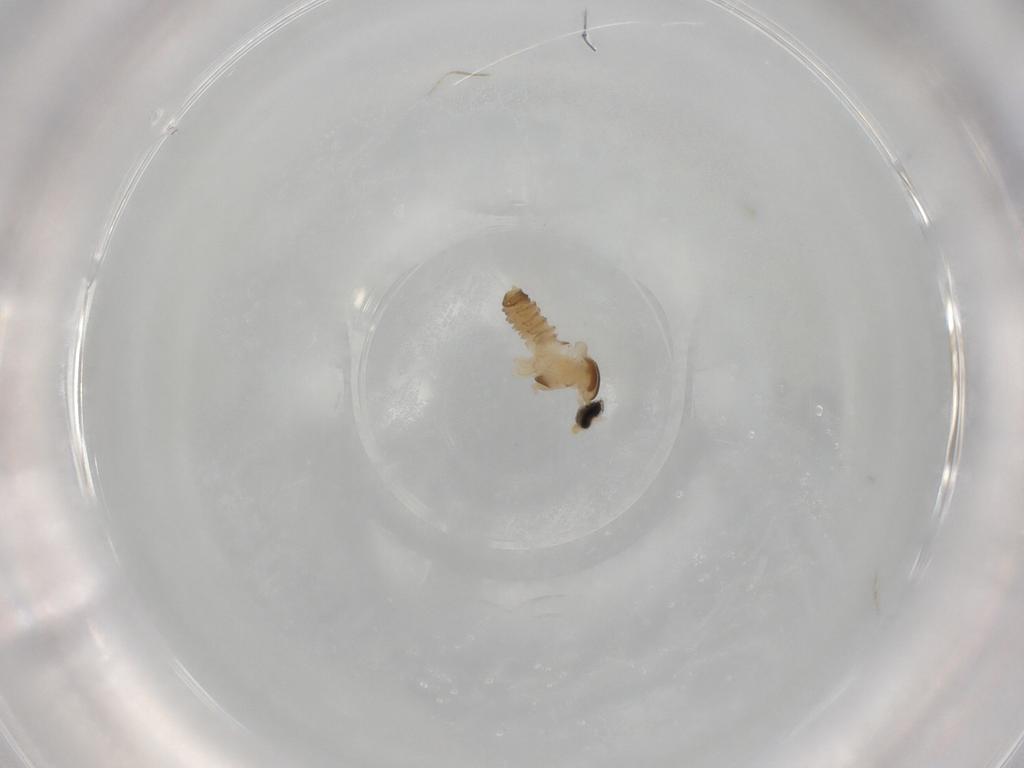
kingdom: Animalia
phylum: Arthropoda
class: Insecta
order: Diptera
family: Cecidomyiidae
